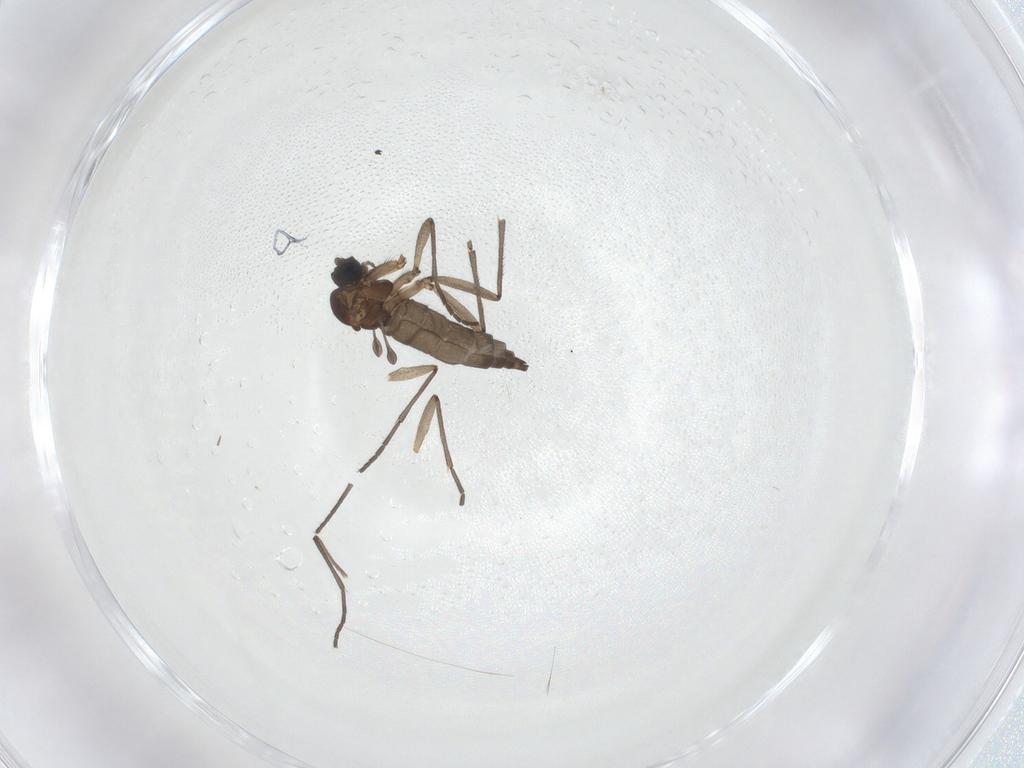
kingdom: Animalia
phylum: Arthropoda
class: Insecta
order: Diptera
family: Sciaridae
